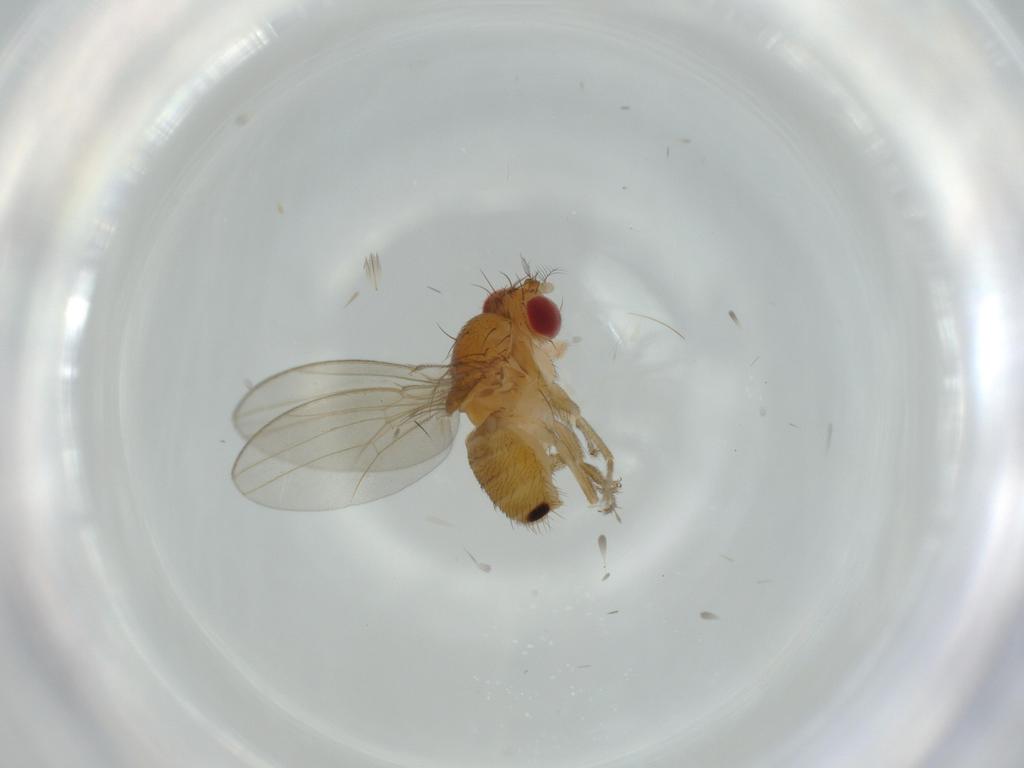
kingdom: Animalia
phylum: Arthropoda
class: Insecta
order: Diptera
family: Drosophilidae
